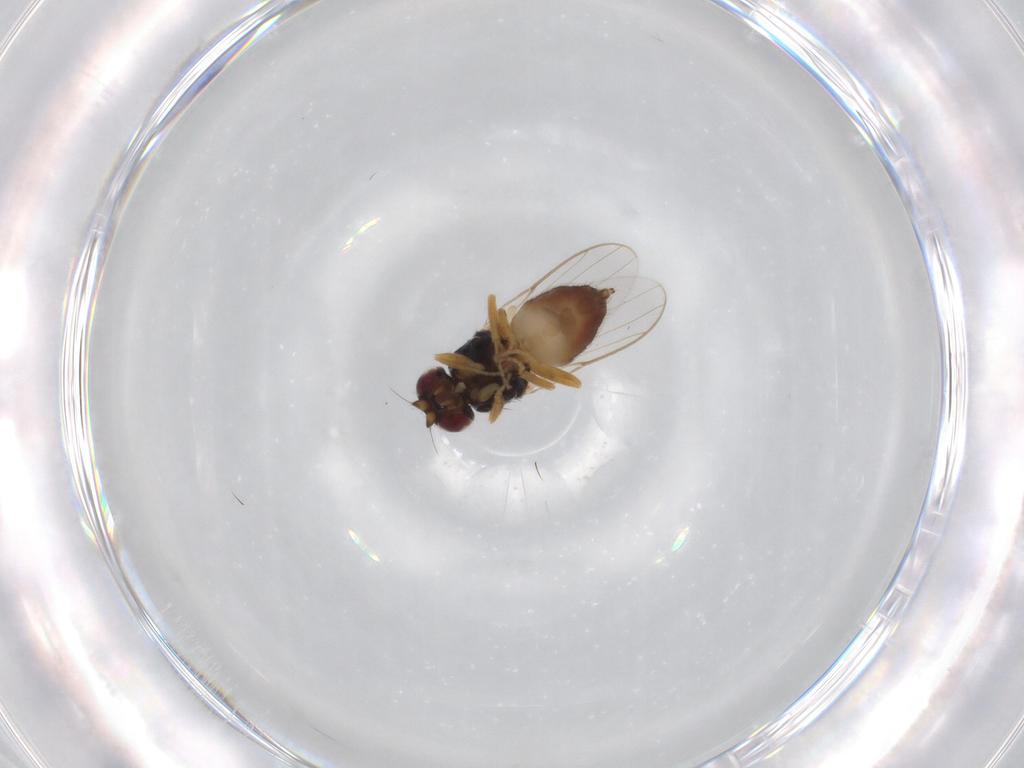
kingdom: Animalia
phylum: Arthropoda
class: Insecta
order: Diptera
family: Chloropidae
